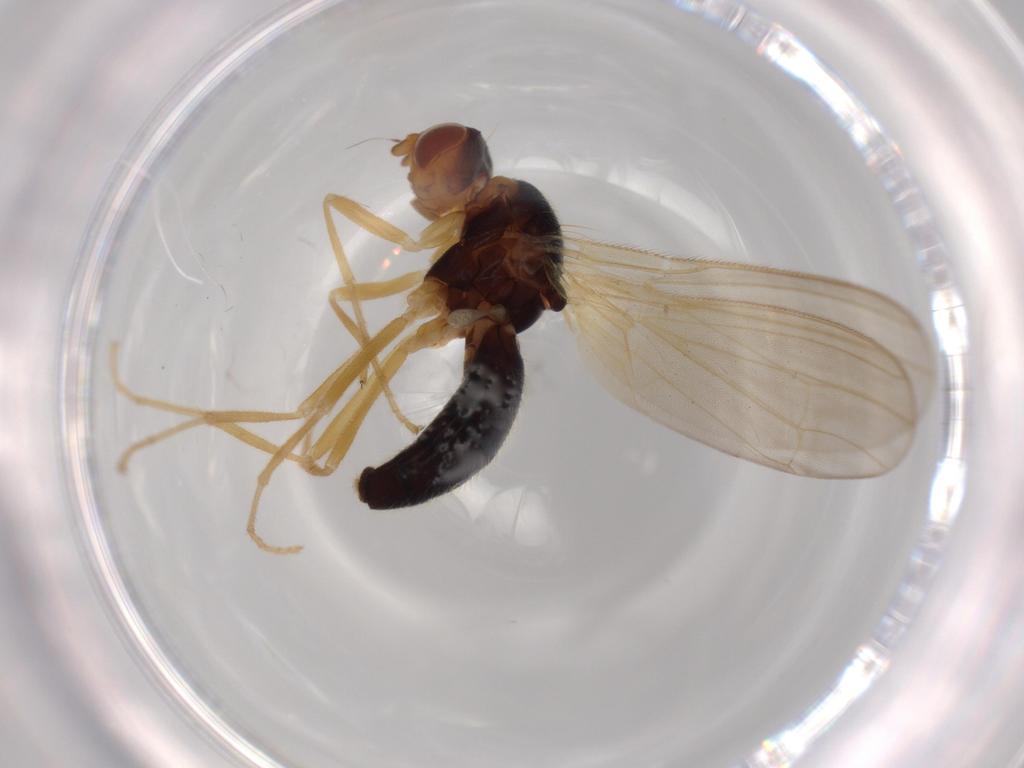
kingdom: Animalia
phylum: Arthropoda
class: Insecta
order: Diptera
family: Psilidae
